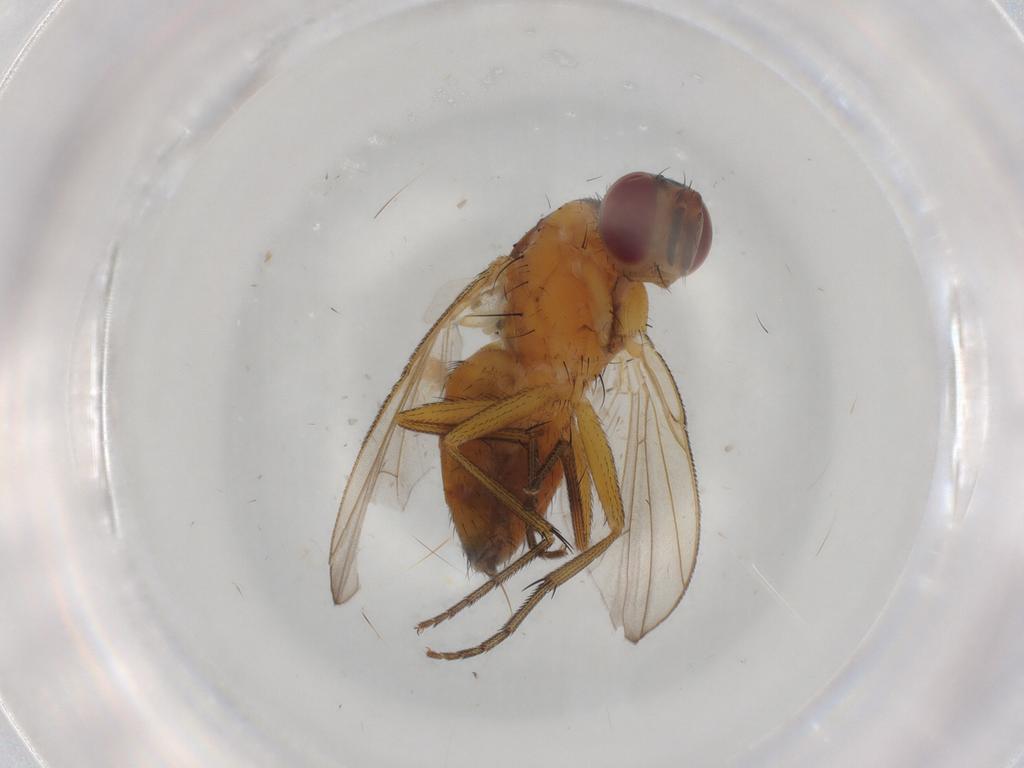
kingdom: Animalia
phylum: Arthropoda
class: Insecta
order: Diptera
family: Muscidae
